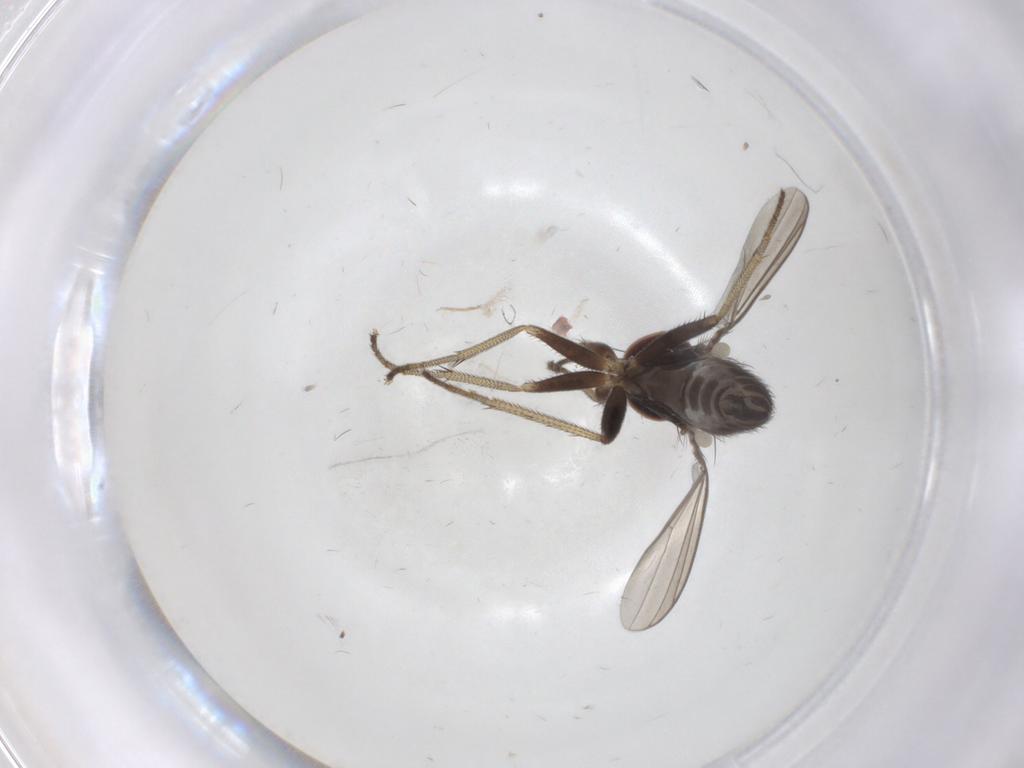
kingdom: Animalia
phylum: Arthropoda
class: Insecta
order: Diptera
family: Dolichopodidae
